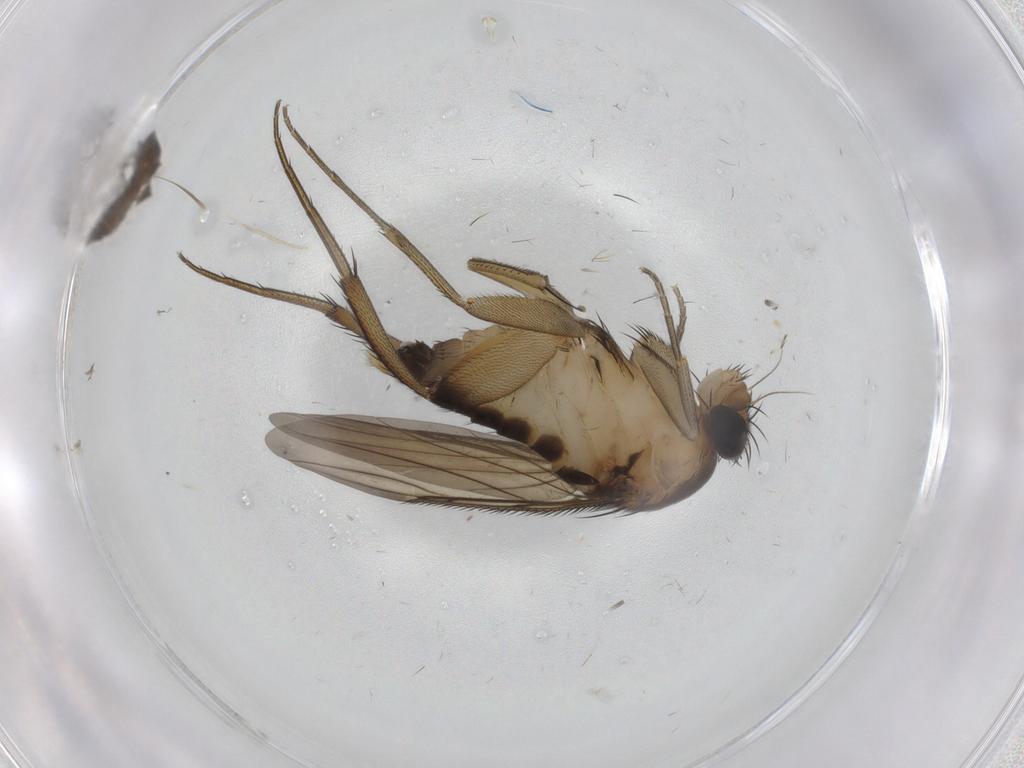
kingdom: Animalia
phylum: Arthropoda
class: Insecta
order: Diptera
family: Phoridae
